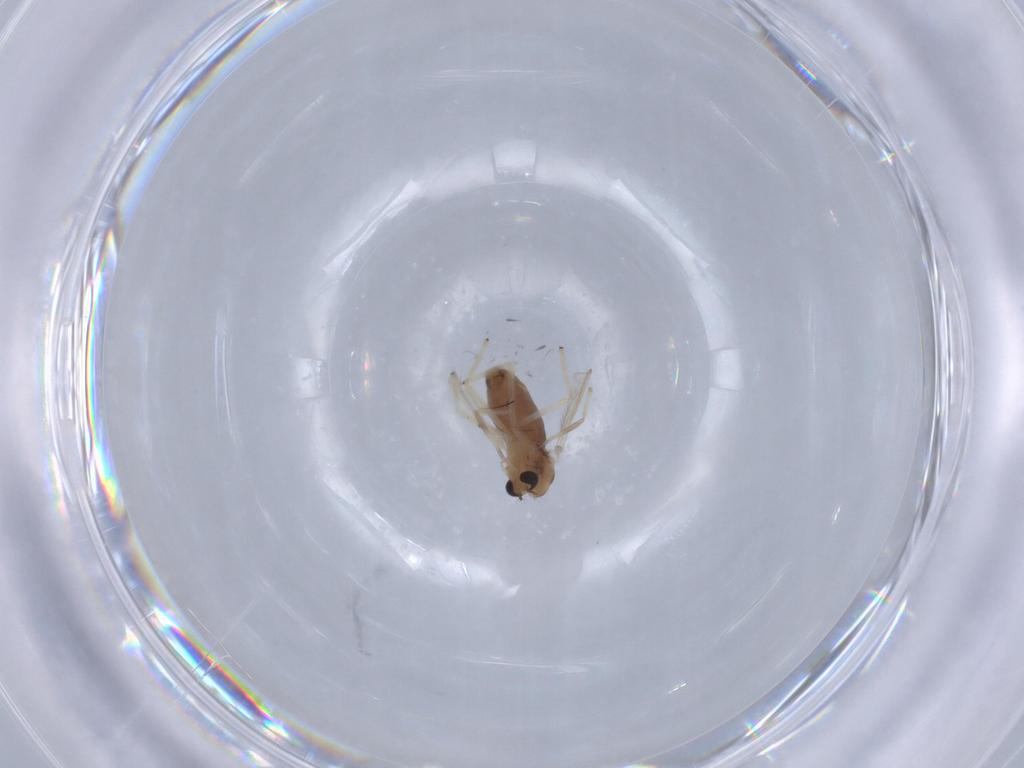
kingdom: Animalia
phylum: Arthropoda
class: Insecta
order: Diptera
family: Chironomidae
